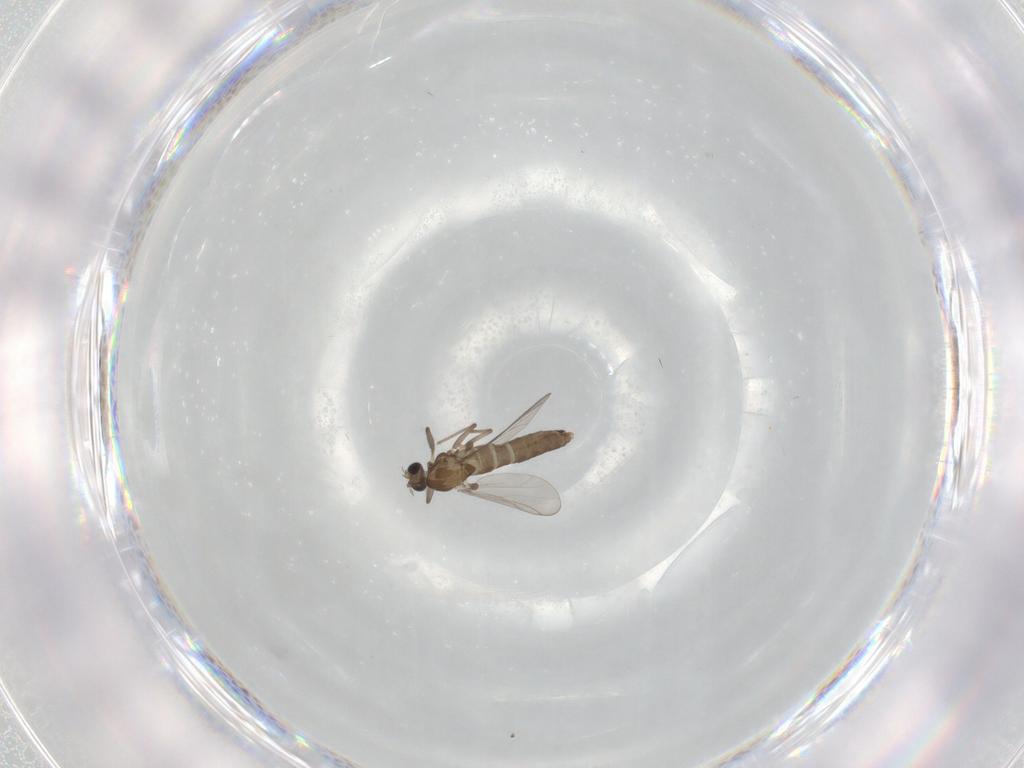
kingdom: Animalia
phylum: Arthropoda
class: Insecta
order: Diptera
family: Chironomidae
